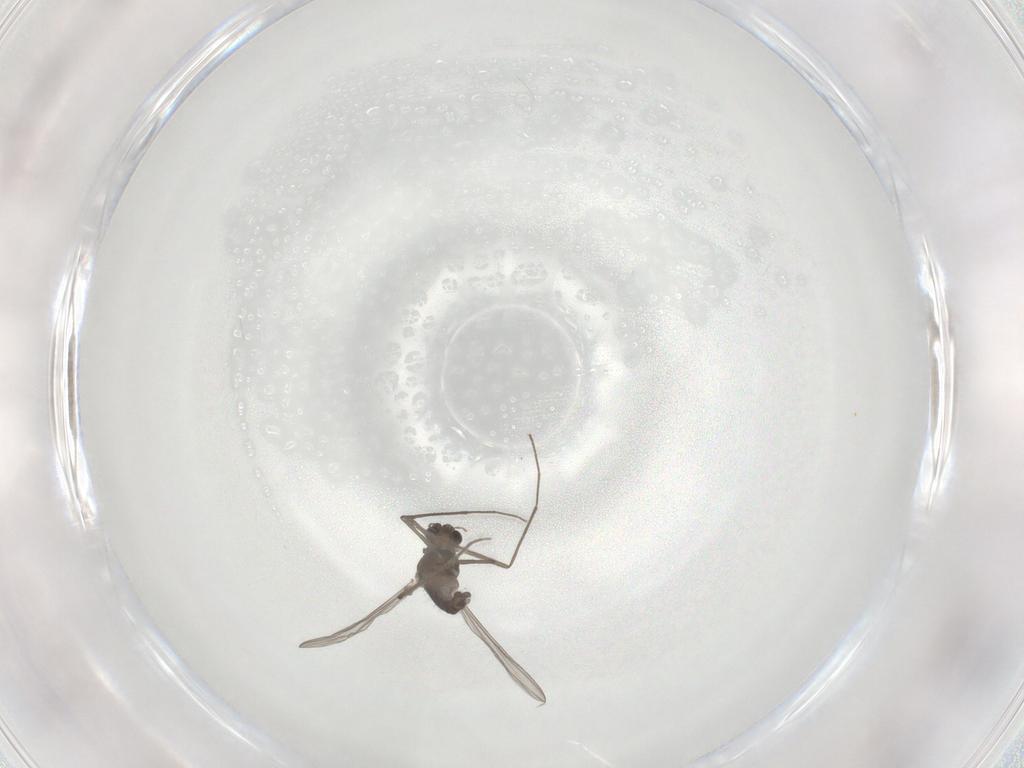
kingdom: Animalia
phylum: Arthropoda
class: Insecta
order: Diptera
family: Chironomidae
